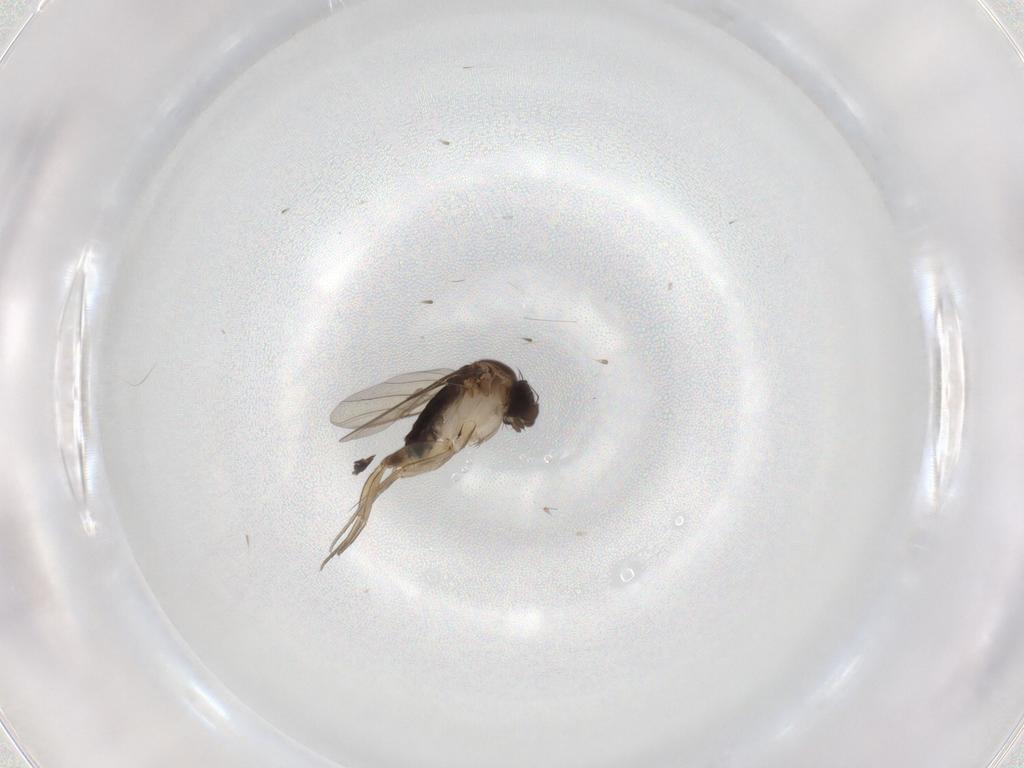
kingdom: Animalia
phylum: Arthropoda
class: Insecta
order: Diptera
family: Phoridae
